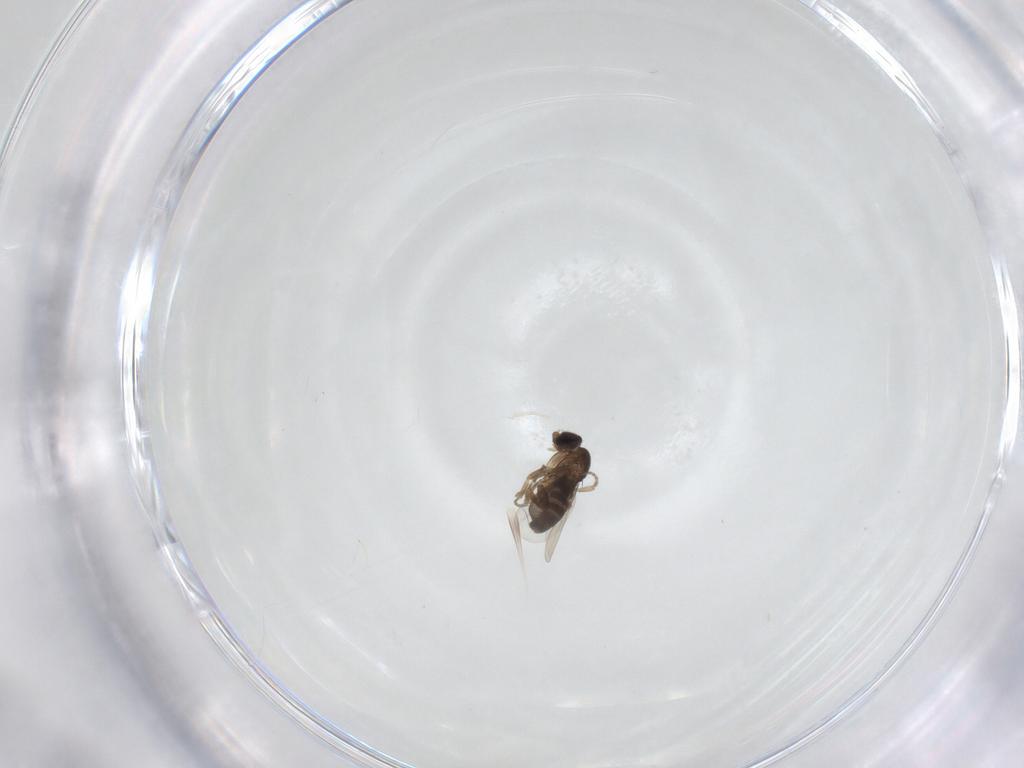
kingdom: Animalia
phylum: Arthropoda
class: Insecta
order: Diptera
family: Phoridae
